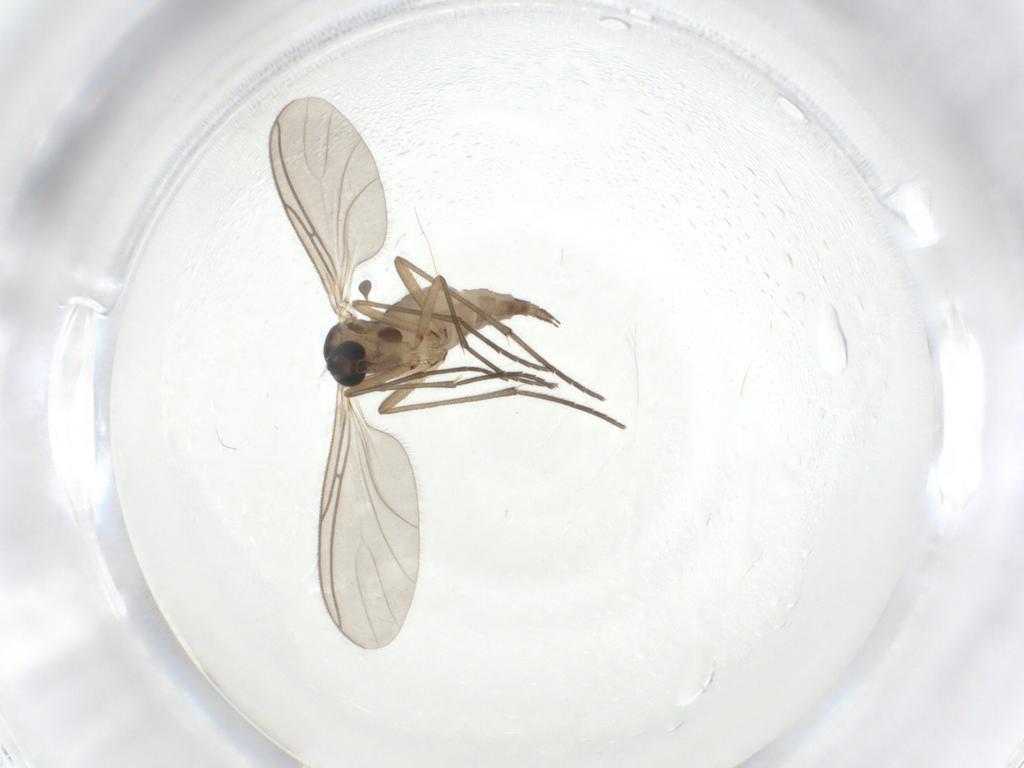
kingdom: Animalia
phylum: Arthropoda
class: Insecta
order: Diptera
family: Sciaridae
